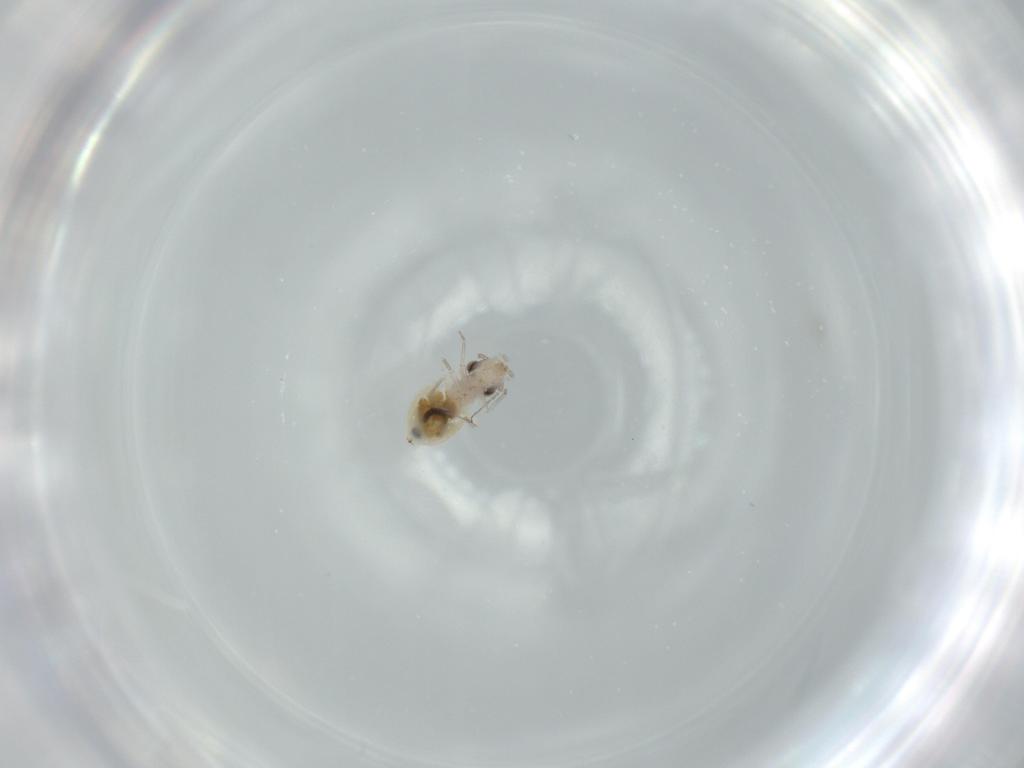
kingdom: Animalia
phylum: Arthropoda
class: Insecta
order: Psocodea
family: Lepidopsocidae
